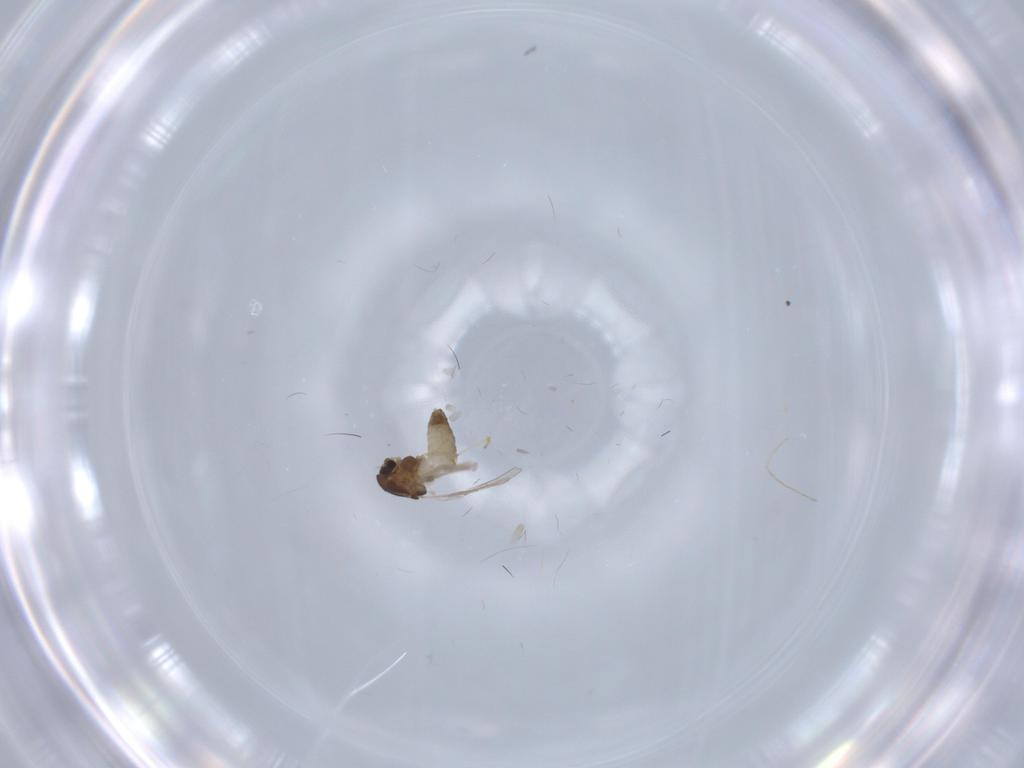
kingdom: Animalia
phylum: Arthropoda
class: Insecta
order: Diptera
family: Chironomidae
